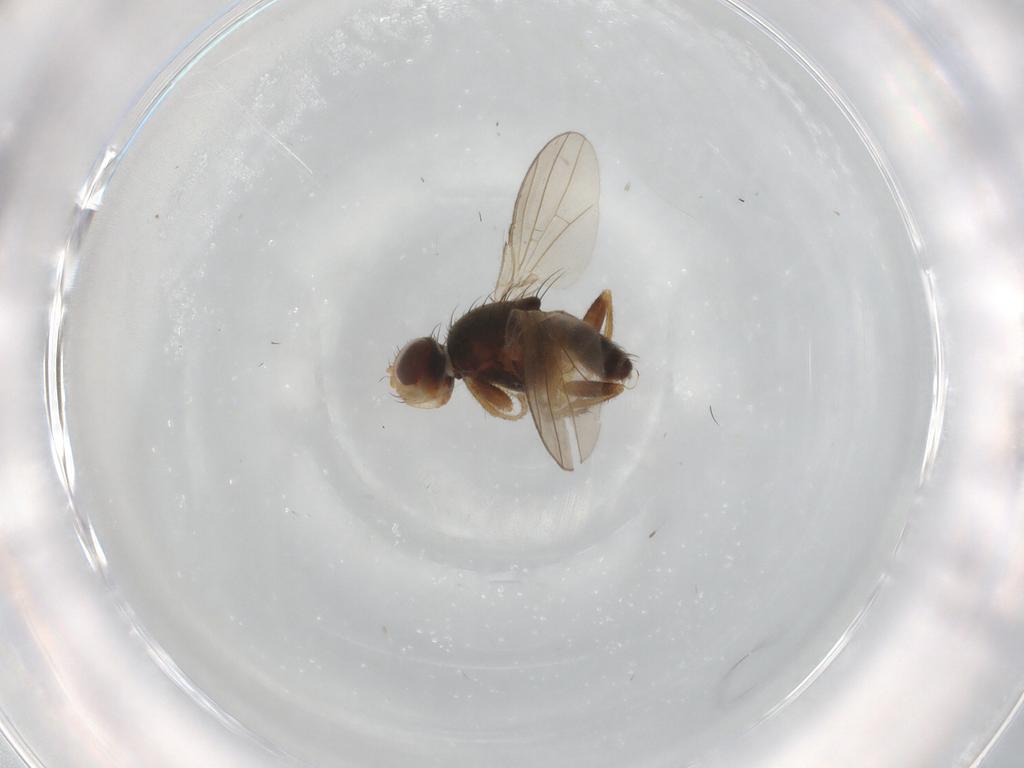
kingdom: Animalia
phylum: Arthropoda
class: Insecta
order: Diptera
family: Canacidae
